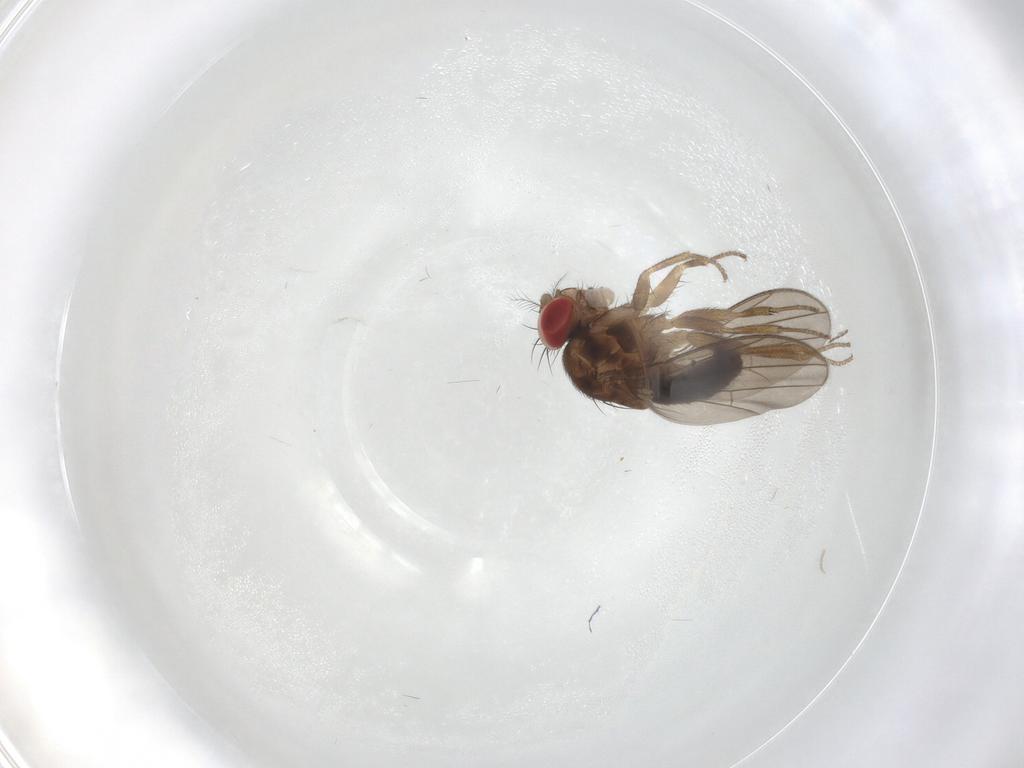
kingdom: Animalia
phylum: Arthropoda
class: Insecta
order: Diptera
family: Drosophilidae
